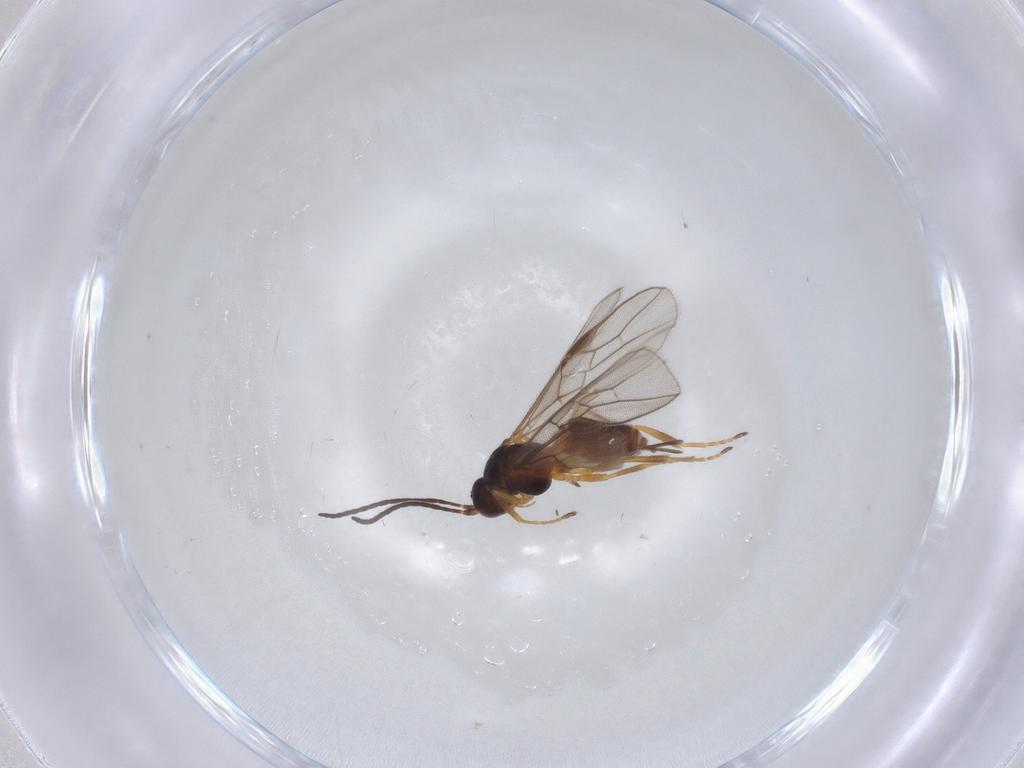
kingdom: Animalia
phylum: Arthropoda
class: Insecta
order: Hymenoptera
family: Braconidae
